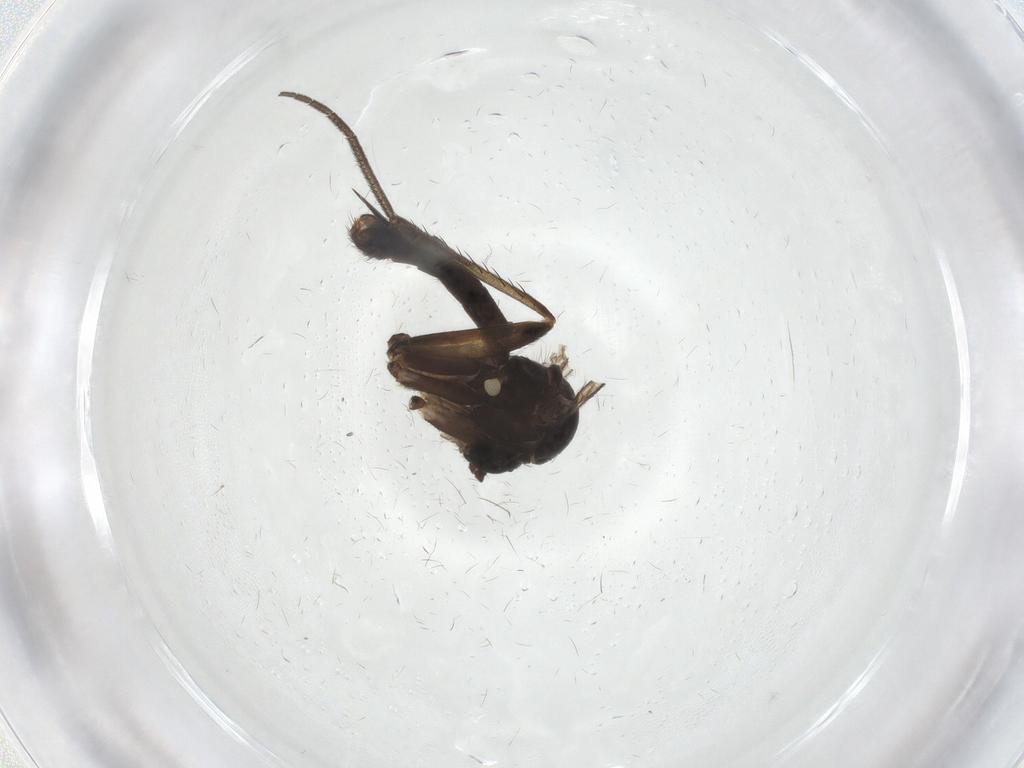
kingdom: Animalia
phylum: Arthropoda
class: Insecta
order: Diptera
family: Mycetophilidae
